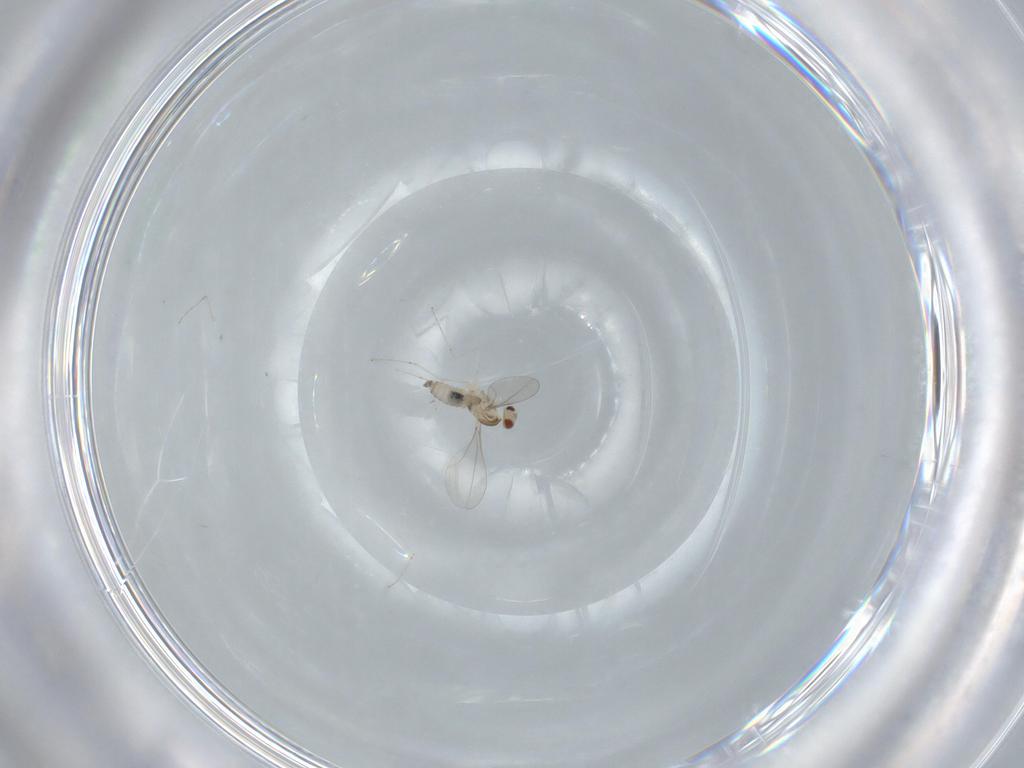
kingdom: Animalia
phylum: Arthropoda
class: Insecta
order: Diptera
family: Cecidomyiidae
